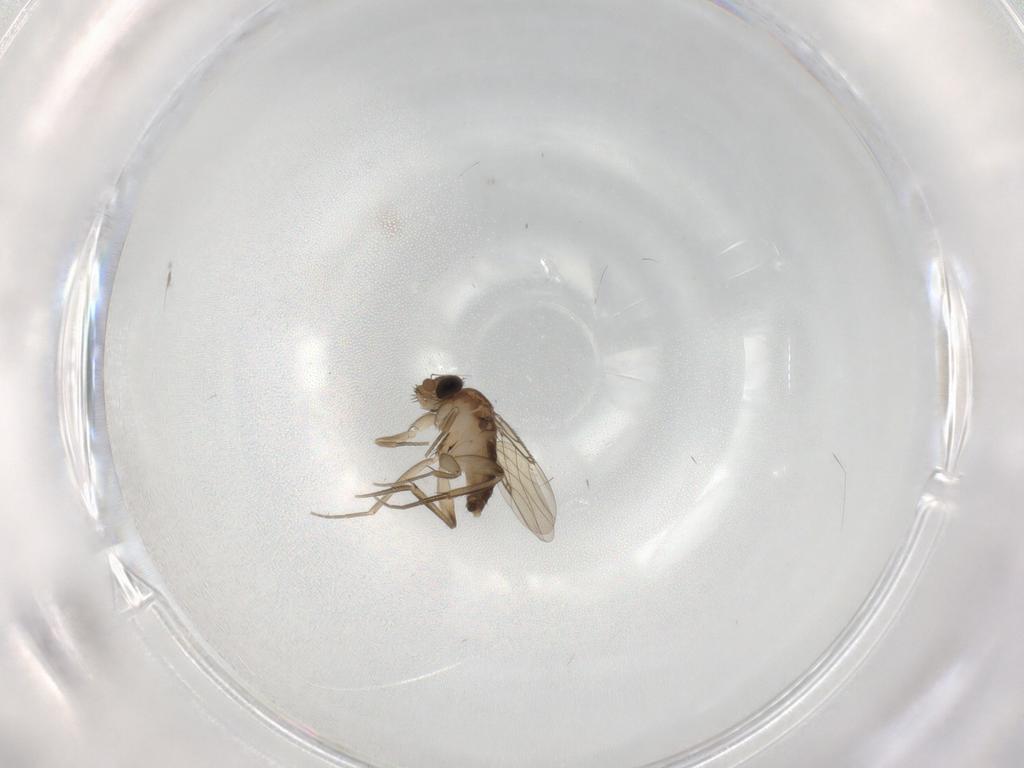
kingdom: Animalia
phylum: Arthropoda
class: Insecta
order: Diptera
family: Phoridae
